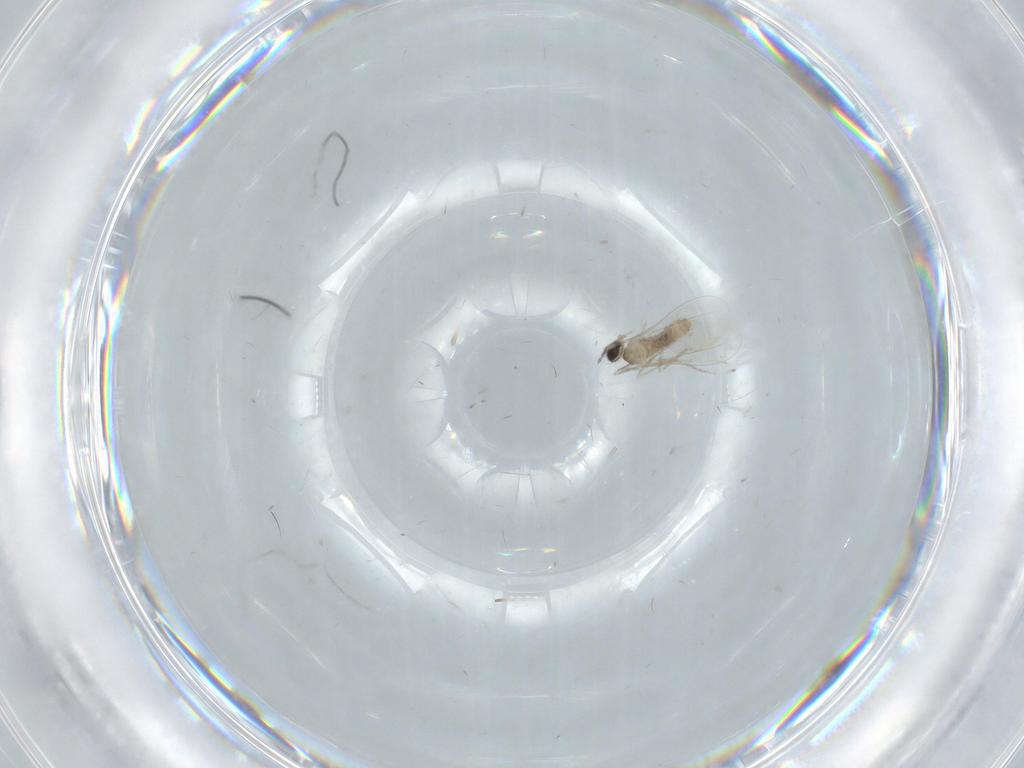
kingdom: Animalia
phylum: Arthropoda
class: Insecta
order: Diptera
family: Cecidomyiidae
